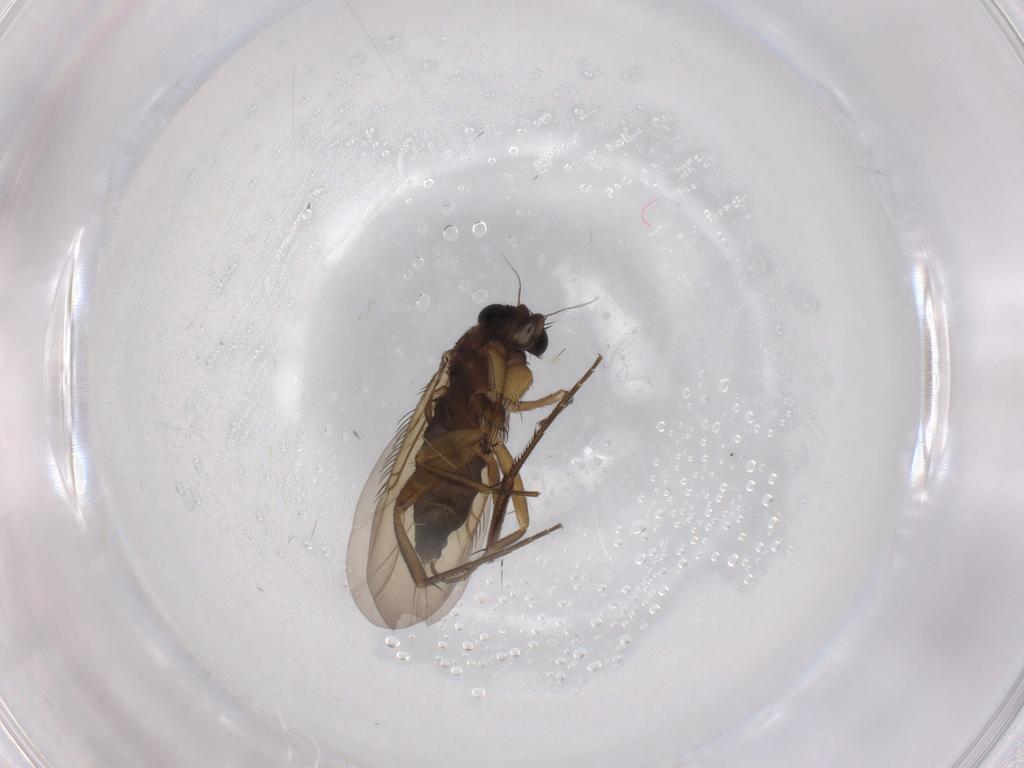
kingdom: Animalia
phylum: Arthropoda
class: Insecta
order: Diptera
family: Phoridae
